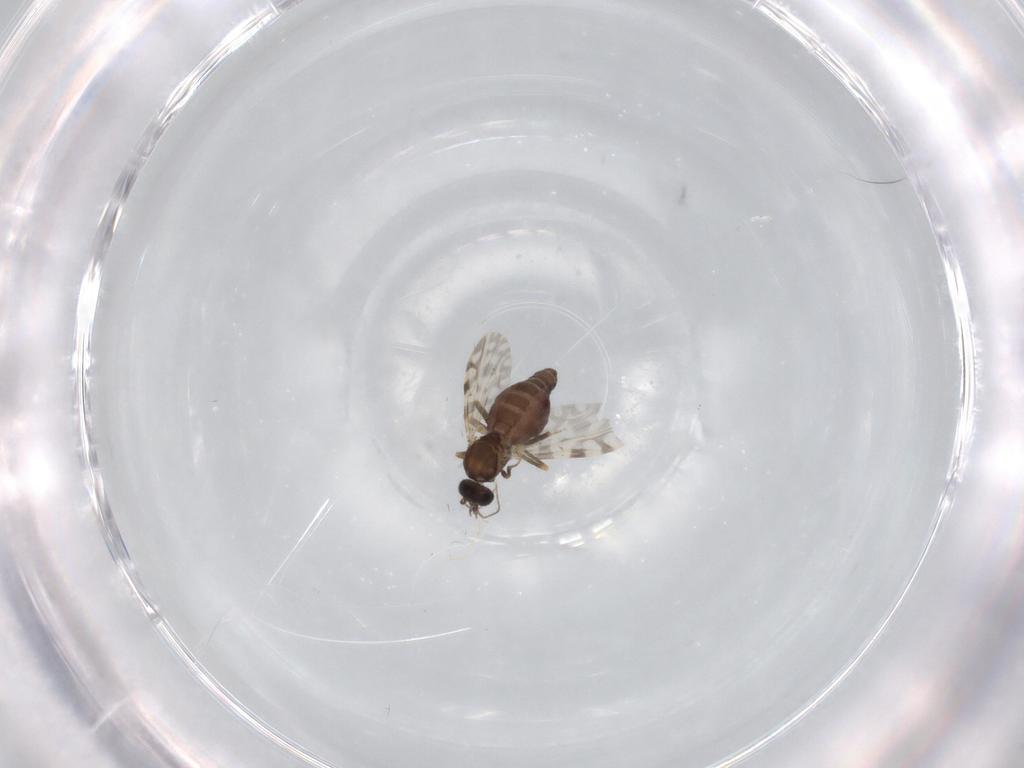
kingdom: Animalia
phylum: Arthropoda
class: Insecta
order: Diptera
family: Ceratopogonidae
